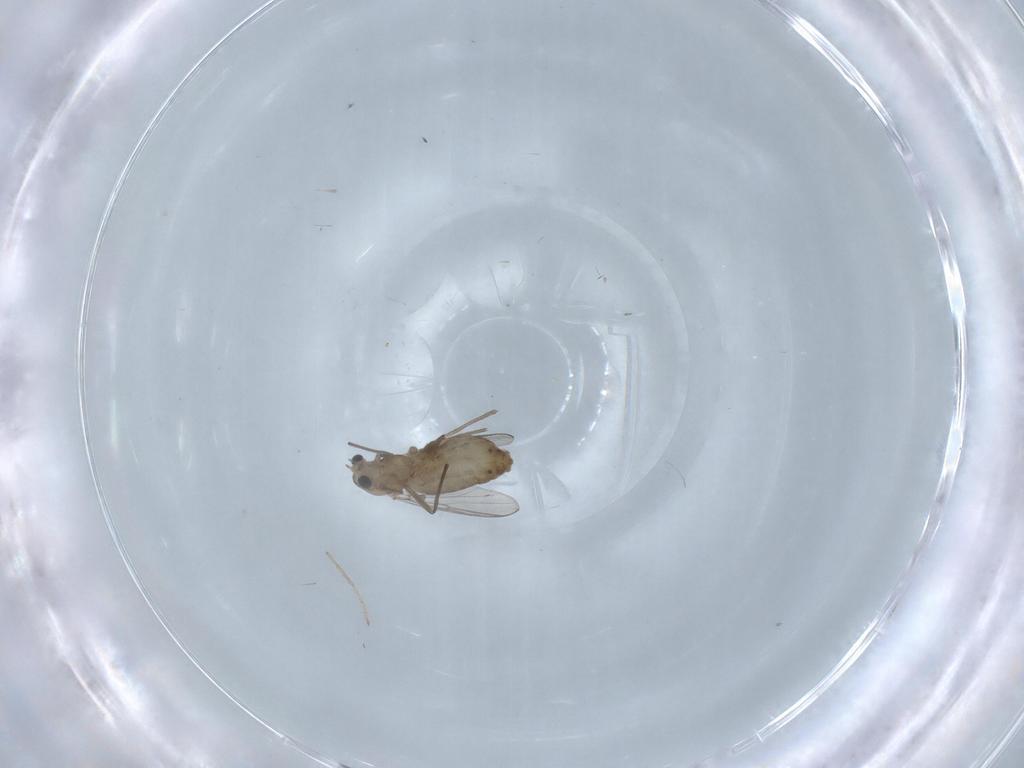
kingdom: Animalia
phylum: Arthropoda
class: Insecta
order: Diptera
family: Chironomidae
